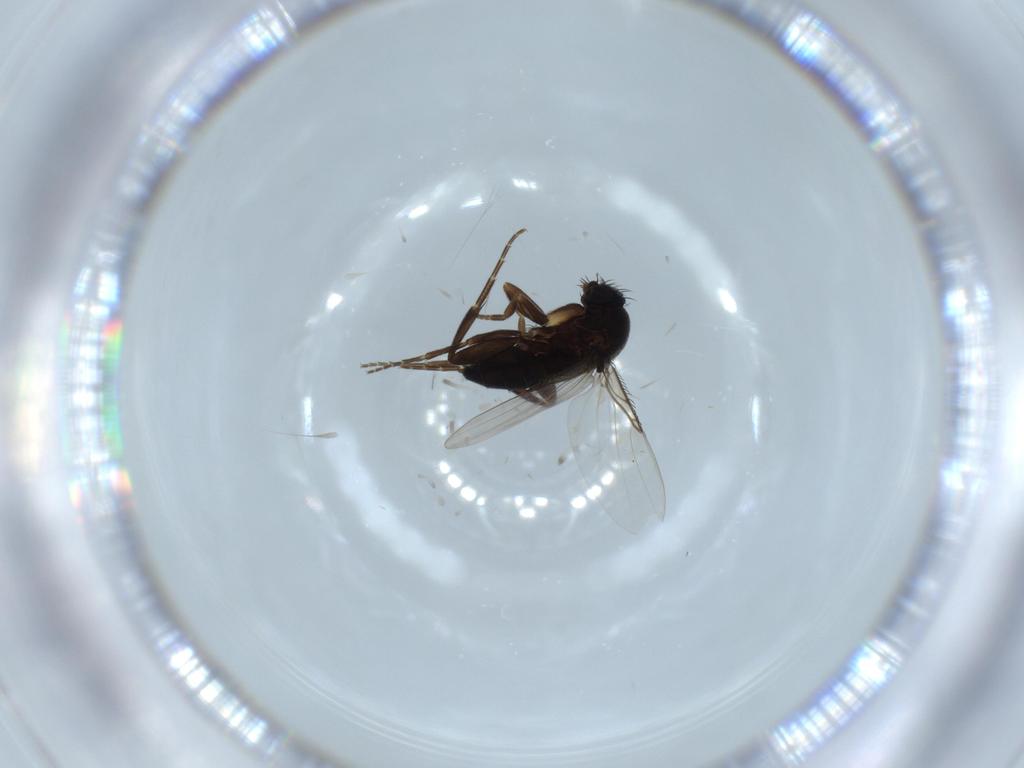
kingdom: Animalia
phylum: Arthropoda
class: Insecta
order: Diptera
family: Phoridae
